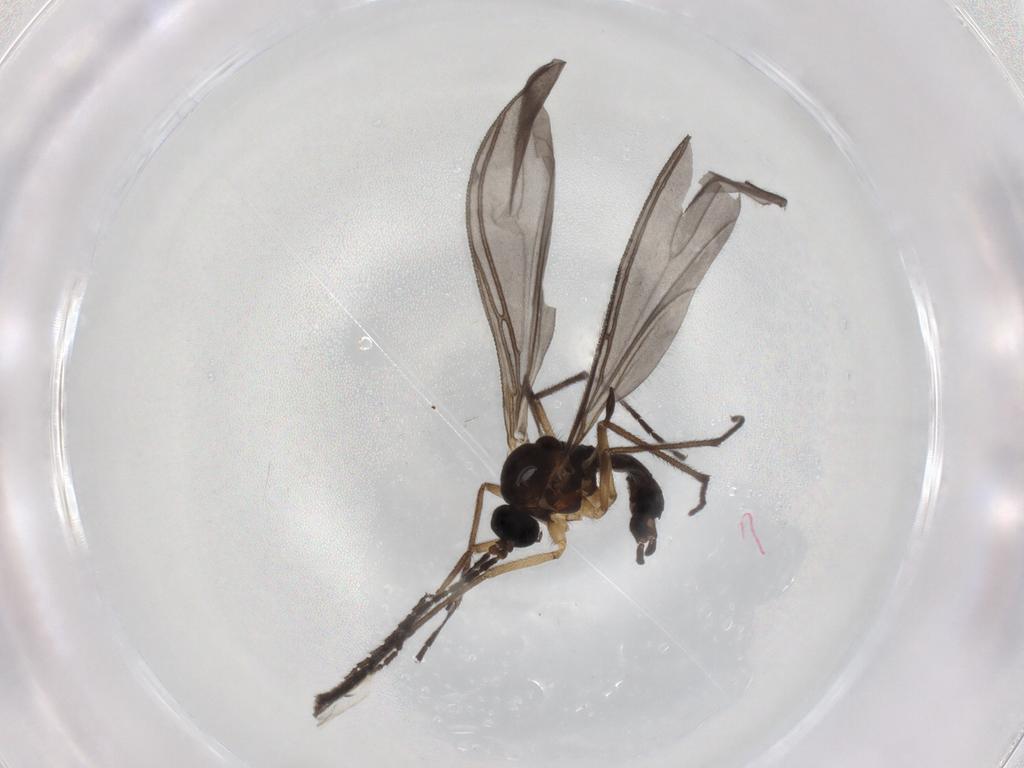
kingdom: Animalia
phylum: Arthropoda
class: Insecta
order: Diptera
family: Sciaridae
